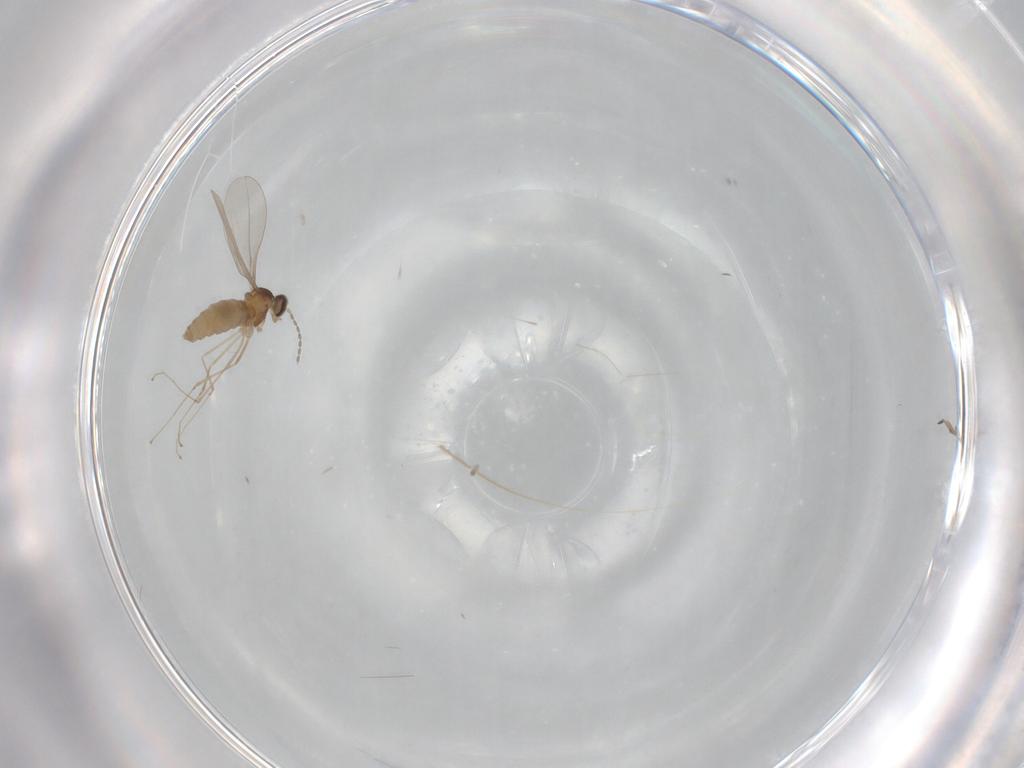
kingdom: Animalia
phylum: Arthropoda
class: Insecta
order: Diptera
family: Cecidomyiidae
